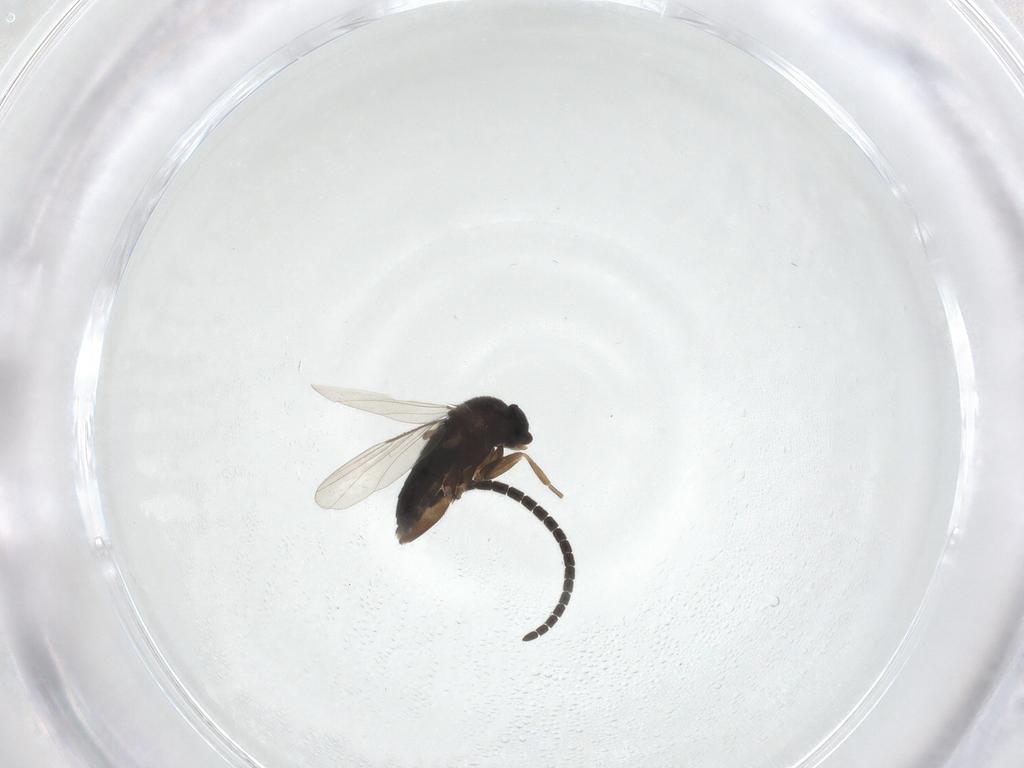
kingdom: Animalia
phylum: Arthropoda
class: Insecta
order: Diptera
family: Phoridae
